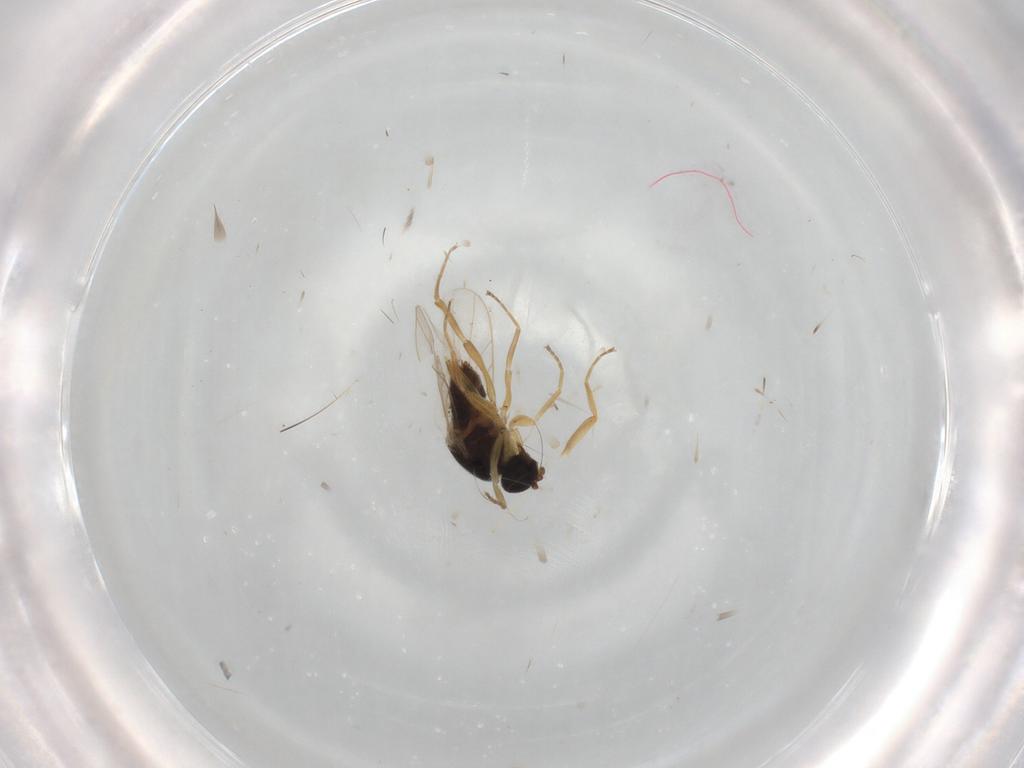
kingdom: Animalia
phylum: Arthropoda
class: Insecta
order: Diptera
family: Hybotidae
